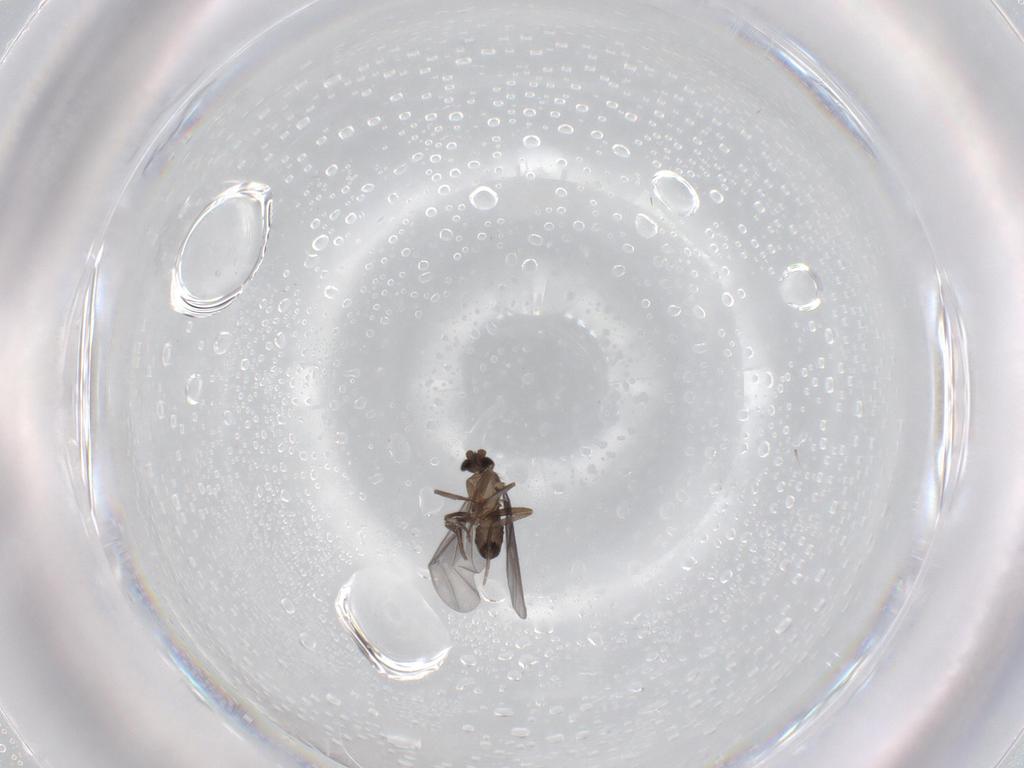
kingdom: Animalia
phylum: Arthropoda
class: Insecta
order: Diptera
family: Phoridae
